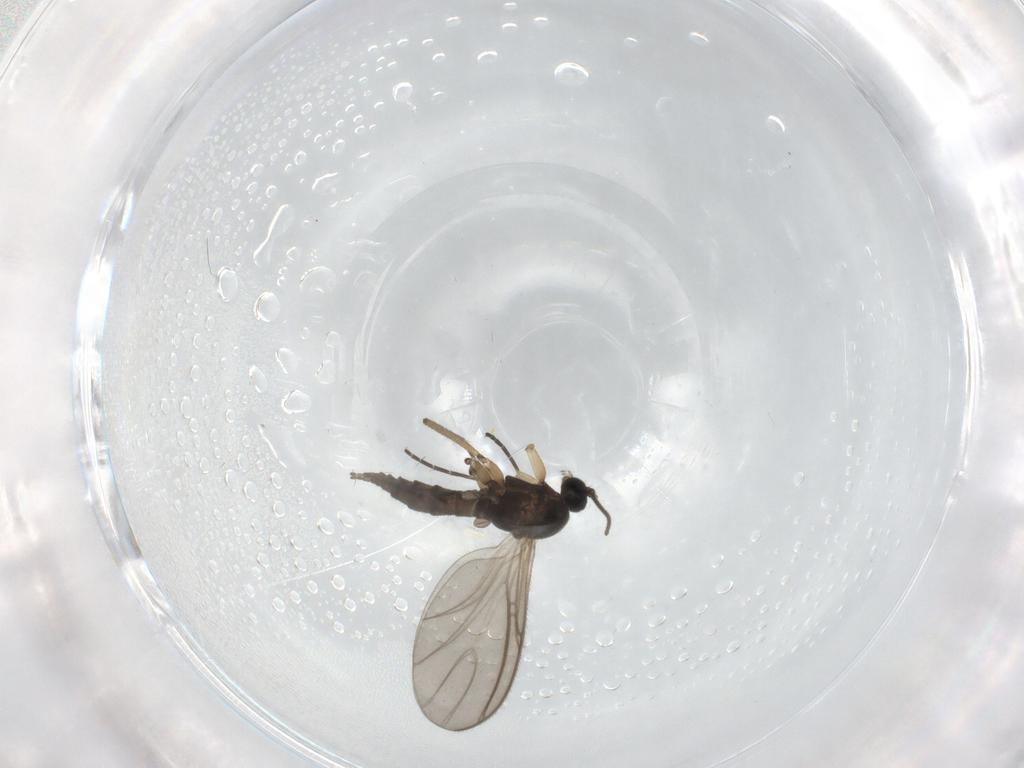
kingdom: Animalia
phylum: Arthropoda
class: Insecta
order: Diptera
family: Sciaridae
